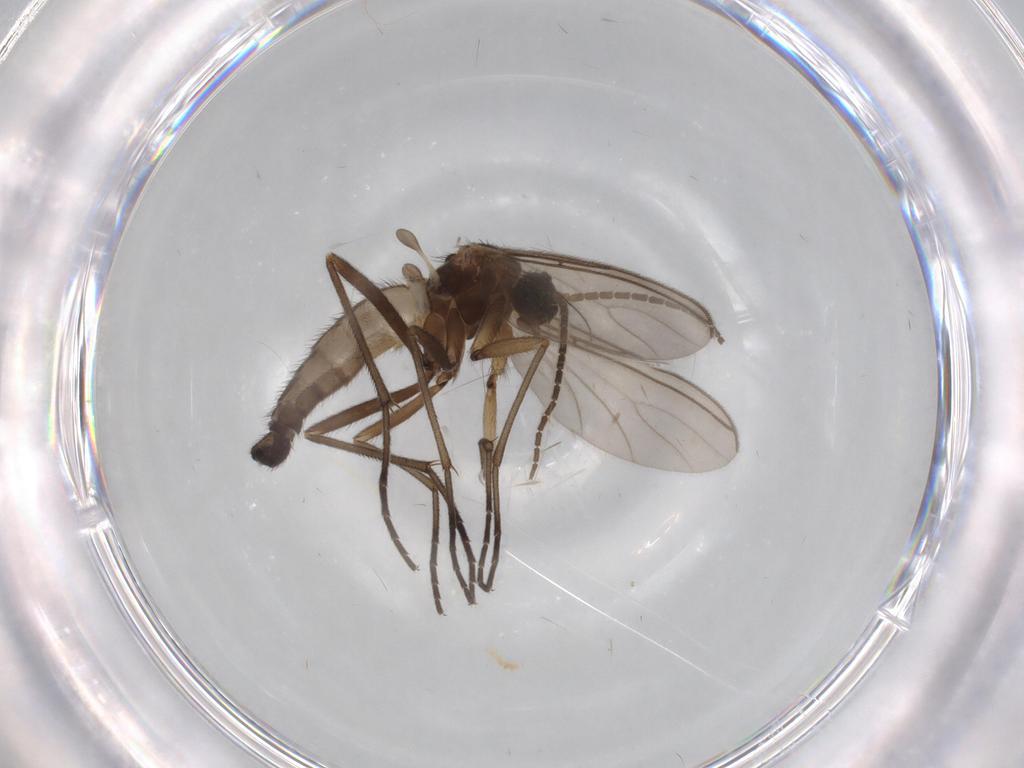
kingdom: Animalia
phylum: Arthropoda
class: Insecta
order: Diptera
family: Sciaridae
